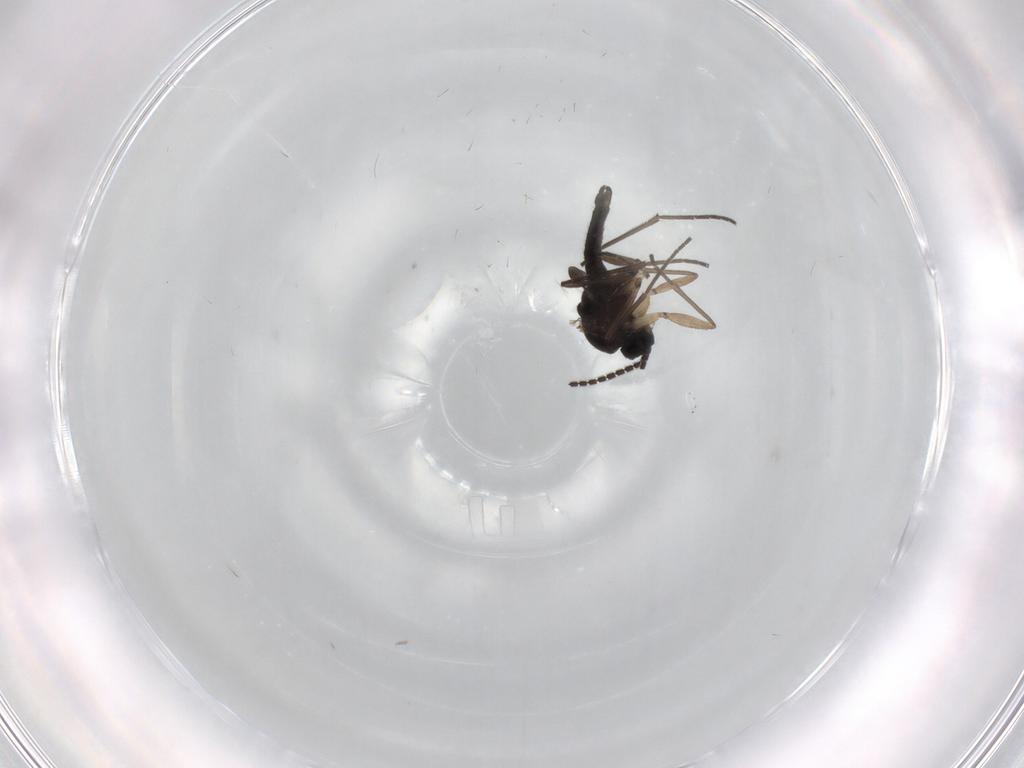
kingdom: Animalia
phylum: Arthropoda
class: Insecta
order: Diptera
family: Sciaridae
